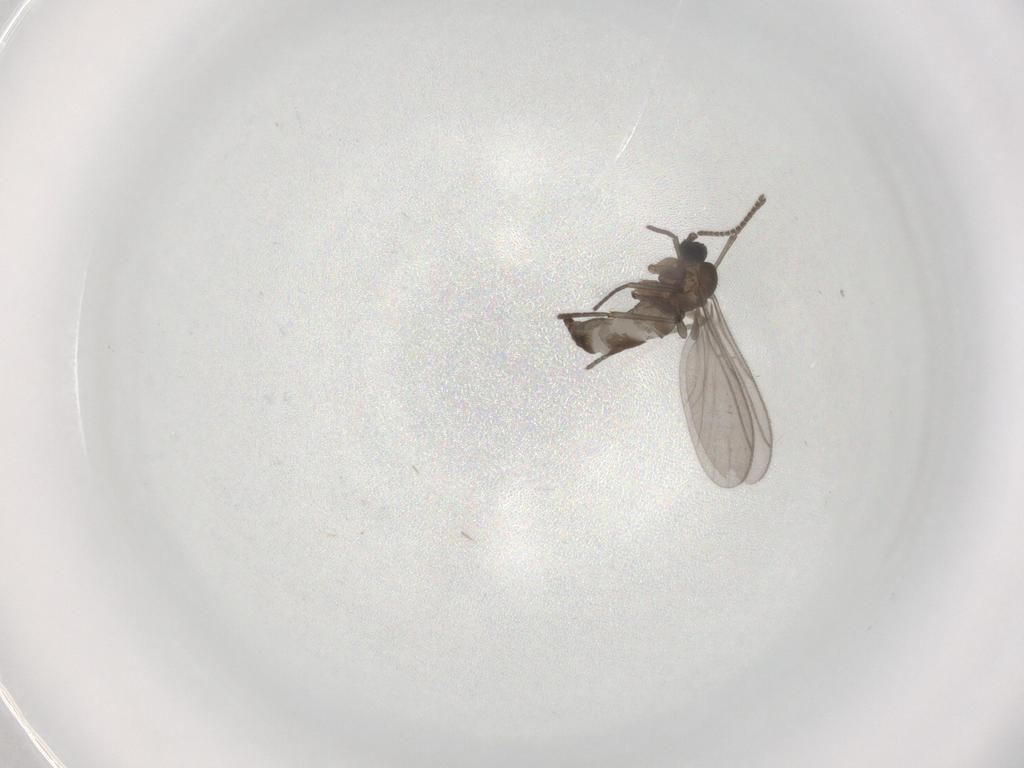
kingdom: Animalia
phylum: Arthropoda
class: Insecta
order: Diptera
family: Sciaridae
